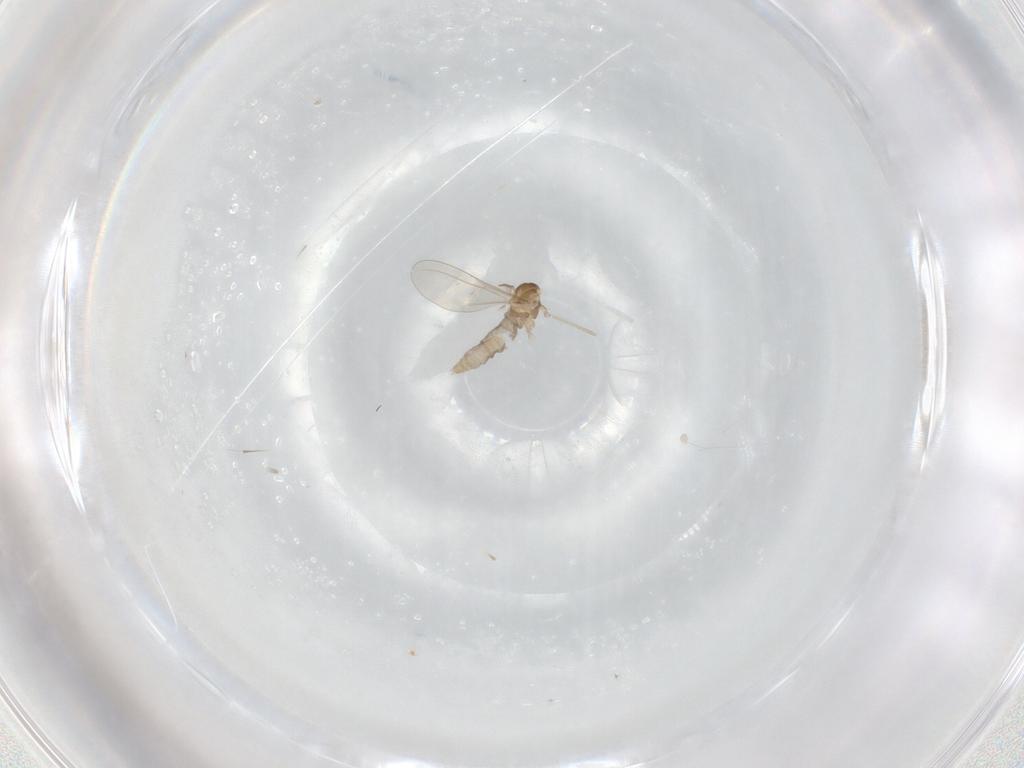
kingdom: Animalia
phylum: Arthropoda
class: Insecta
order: Diptera
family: Cecidomyiidae
